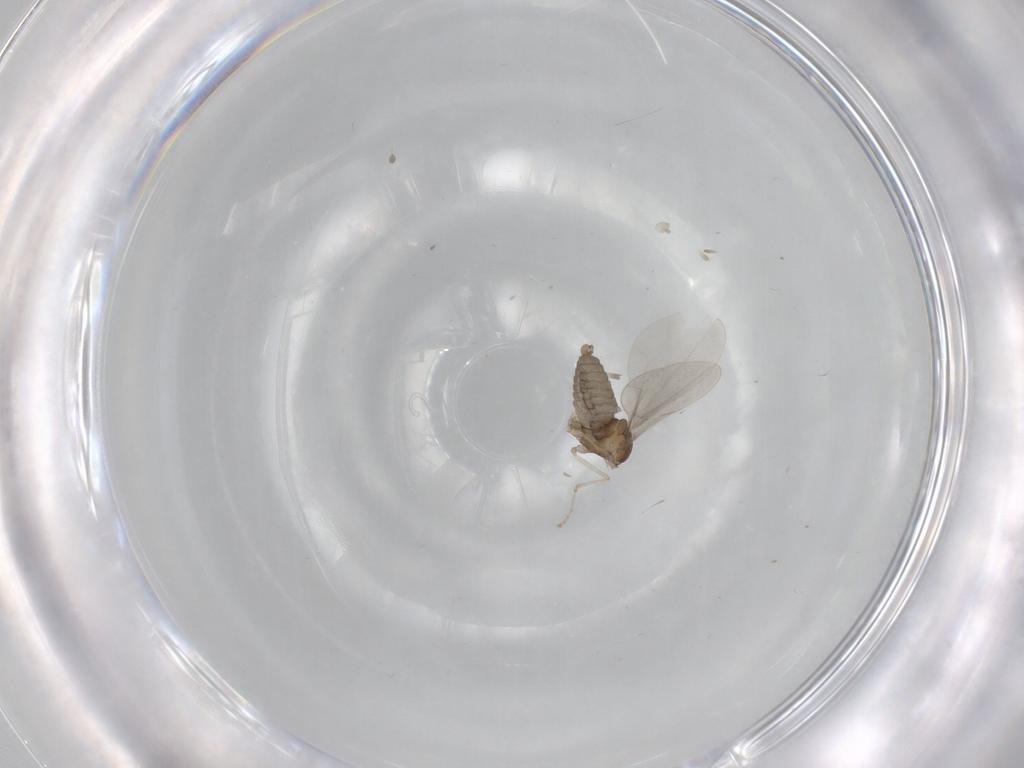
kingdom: Animalia
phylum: Arthropoda
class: Insecta
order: Diptera
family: Cecidomyiidae
